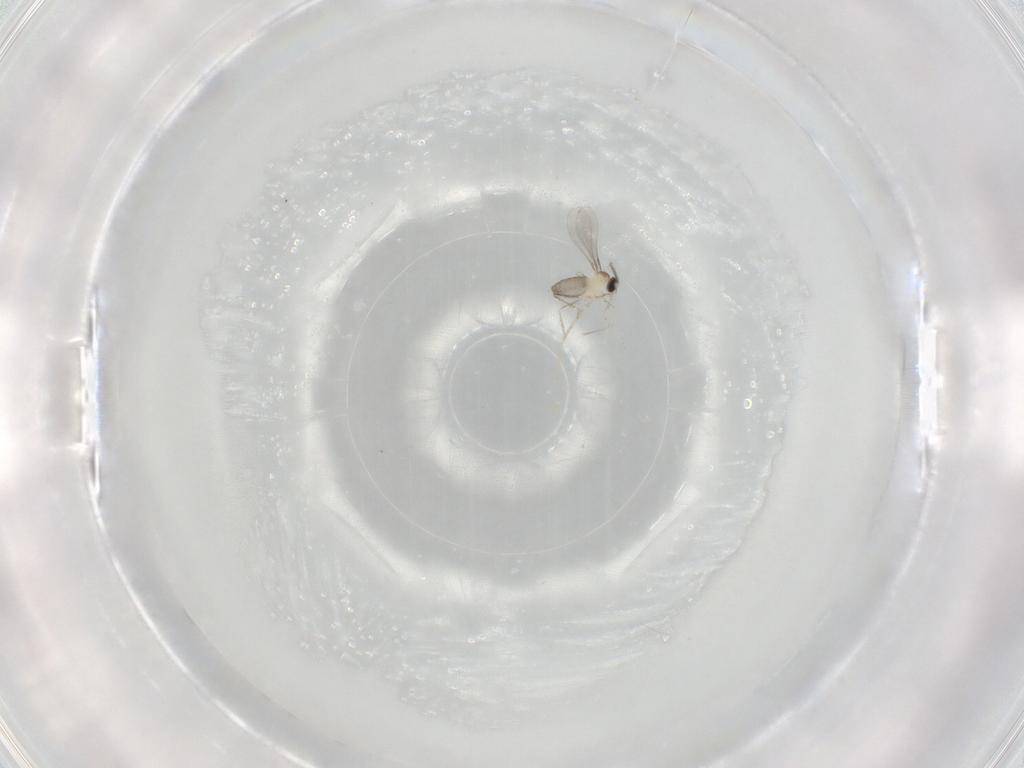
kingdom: Animalia
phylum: Arthropoda
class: Insecta
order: Diptera
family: Cecidomyiidae
